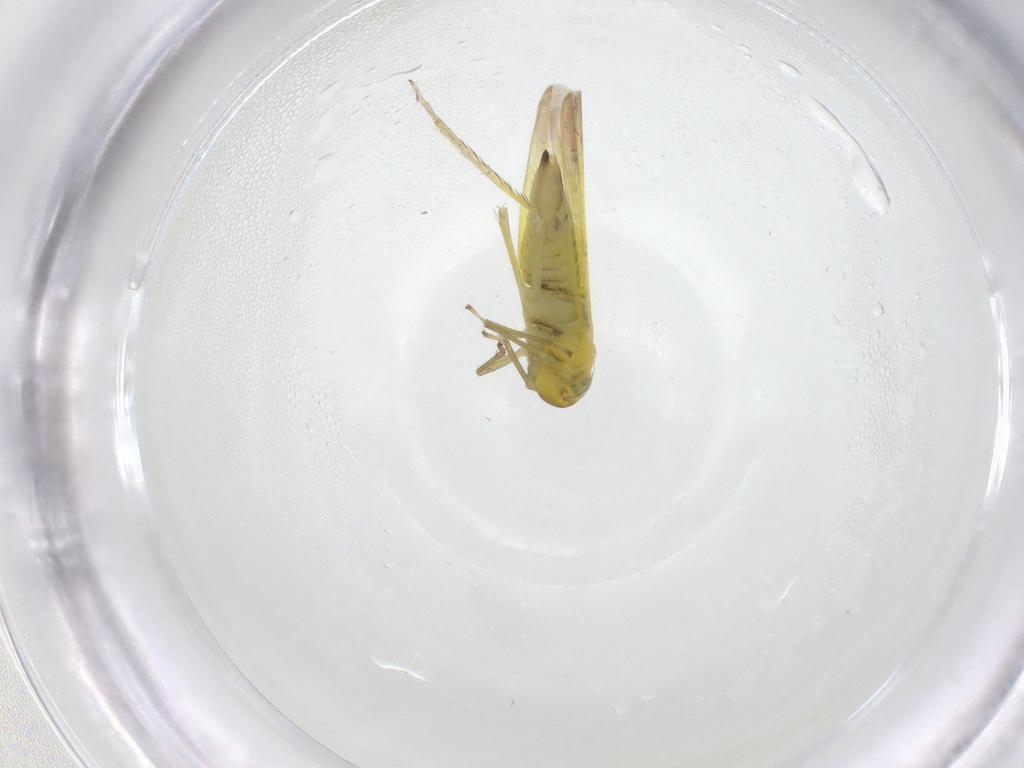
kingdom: Animalia
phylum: Arthropoda
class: Insecta
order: Hemiptera
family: Cicadellidae
